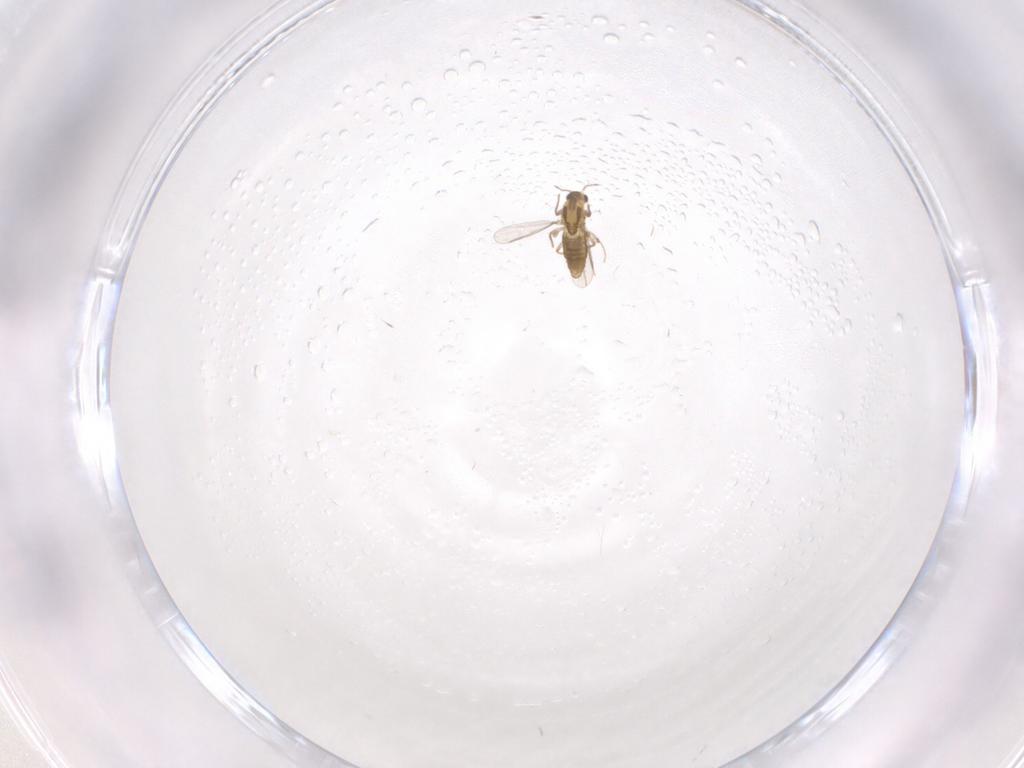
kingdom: Animalia
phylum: Arthropoda
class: Insecta
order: Diptera
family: Chironomidae
